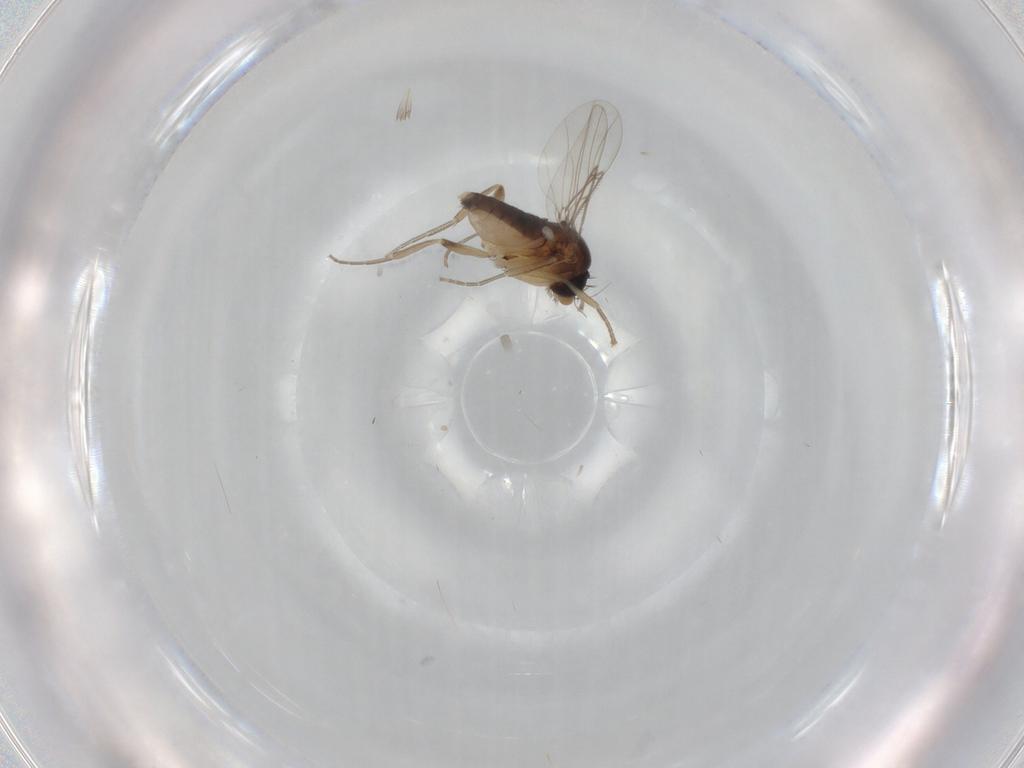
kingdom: Animalia
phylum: Arthropoda
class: Insecta
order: Diptera
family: Phoridae
